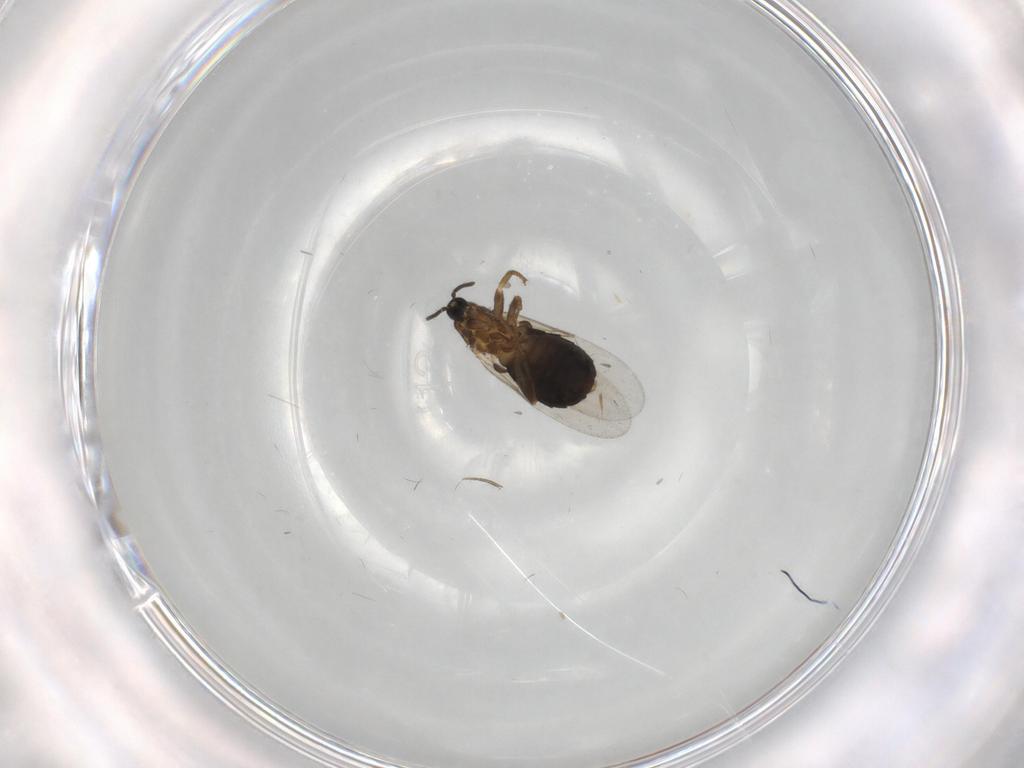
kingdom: Animalia
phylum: Arthropoda
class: Insecta
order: Diptera
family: Scatopsidae
